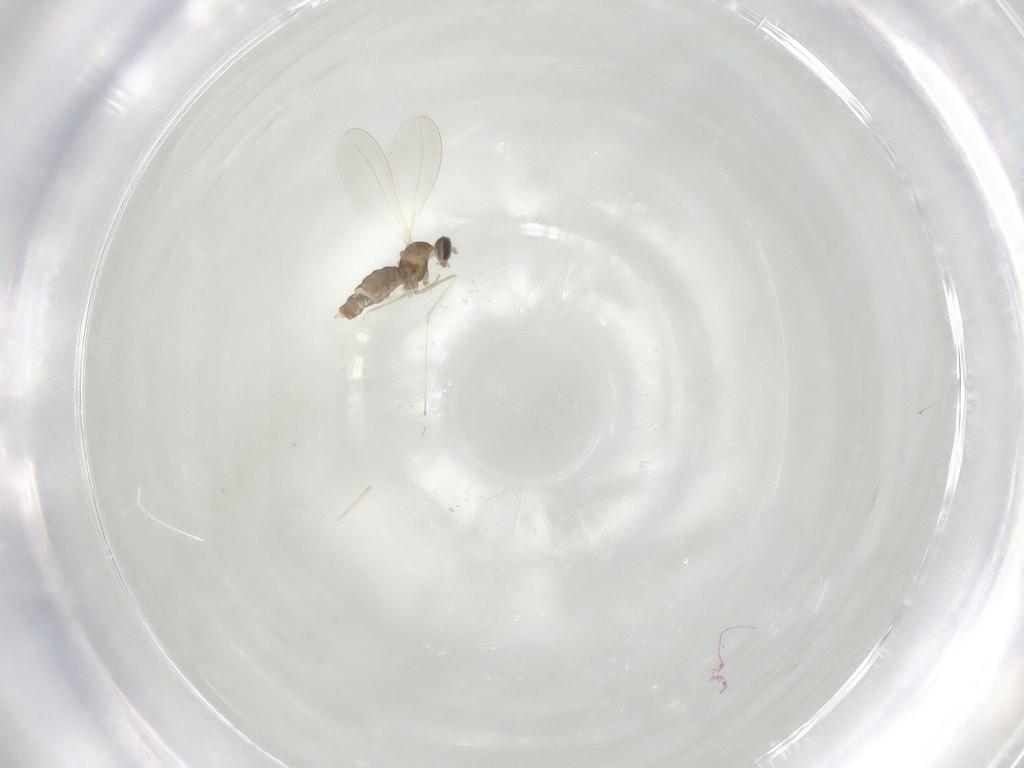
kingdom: Animalia
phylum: Arthropoda
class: Insecta
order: Diptera
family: Cecidomyiidae
